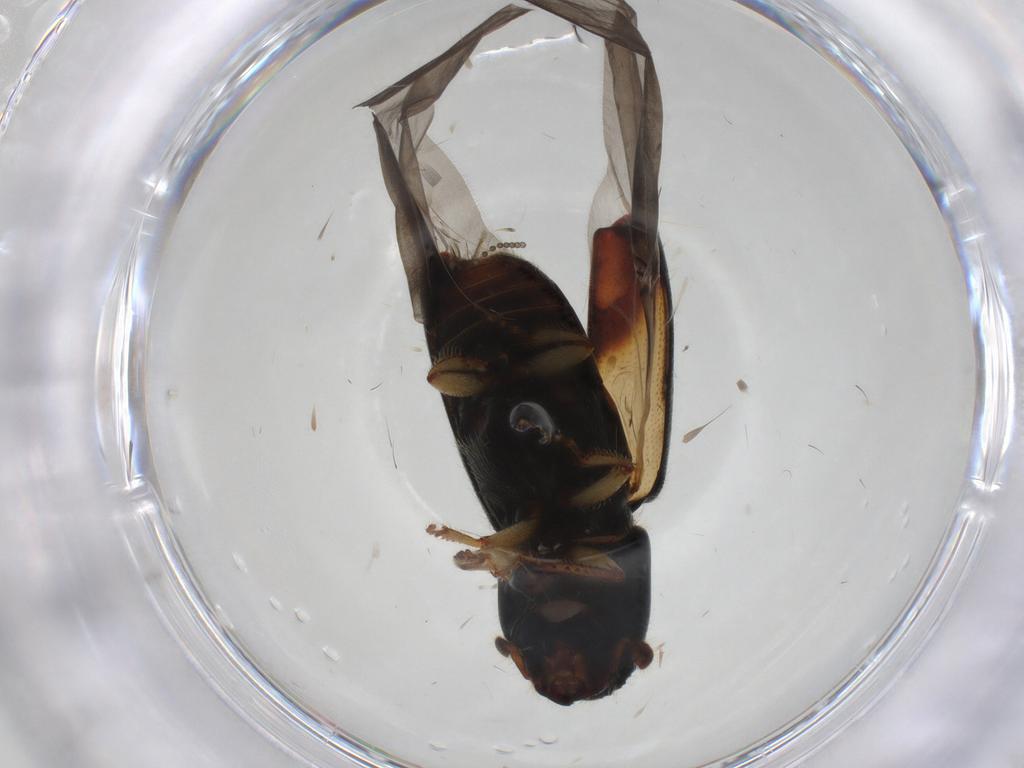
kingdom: Animalia
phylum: Arthropoda
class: Insecta
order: Coleoptera
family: Curculionidae
